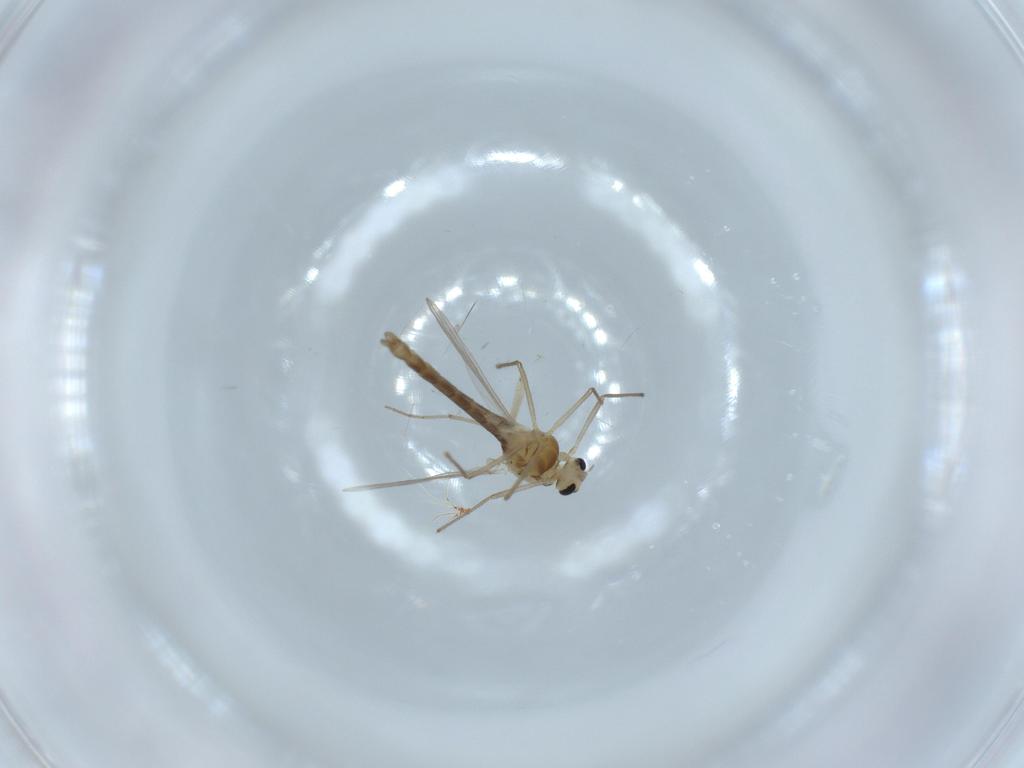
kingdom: Animalia
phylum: Arthropoda
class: Insecta
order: Diptera
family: Chironomidae
